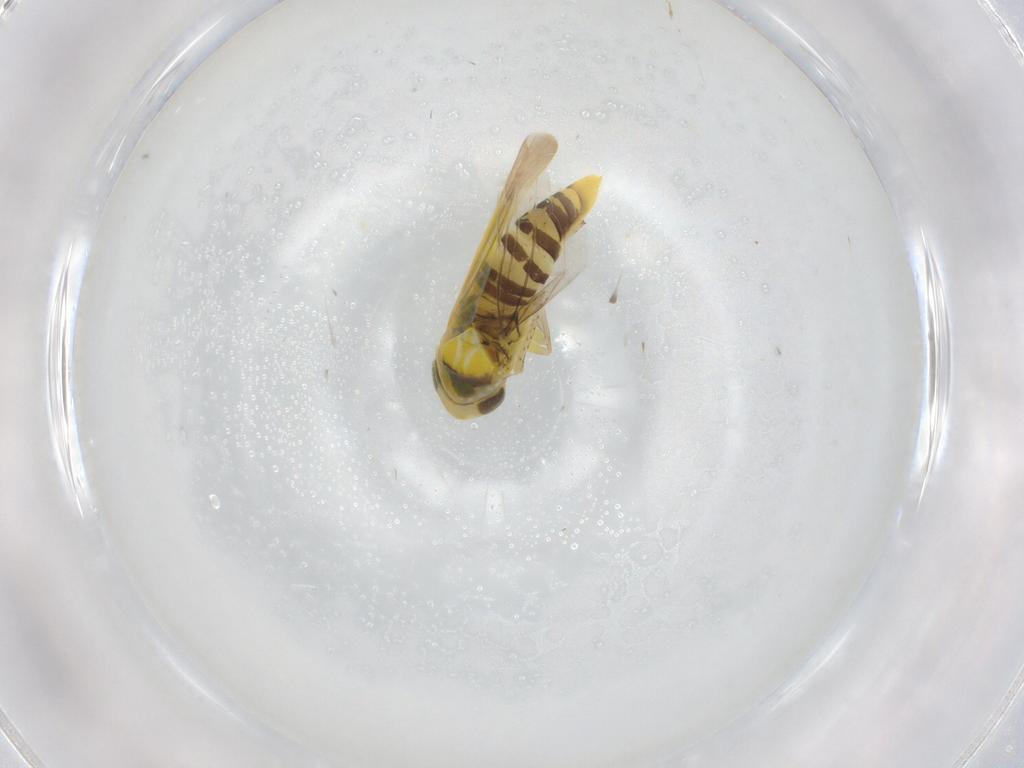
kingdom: Animalia
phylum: Arthropoda
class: Insecta
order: Hemiptera
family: Cicadellidae
